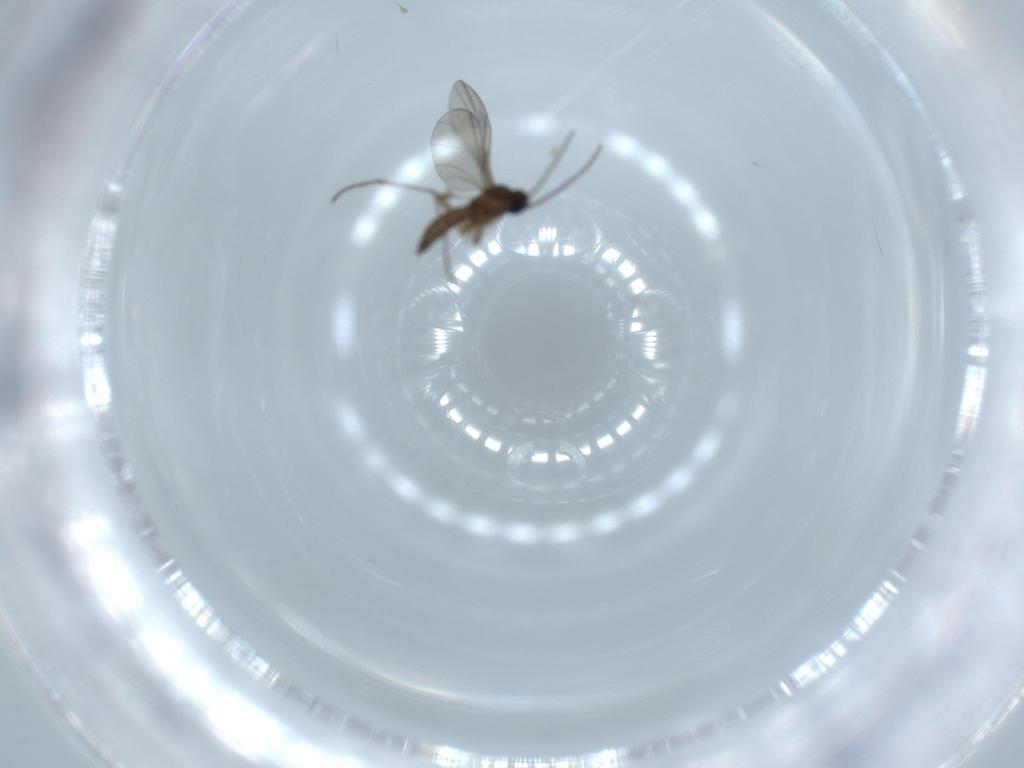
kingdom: Animalia
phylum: Arthropoda
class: Insecta
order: Diptera
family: Sciaridae
